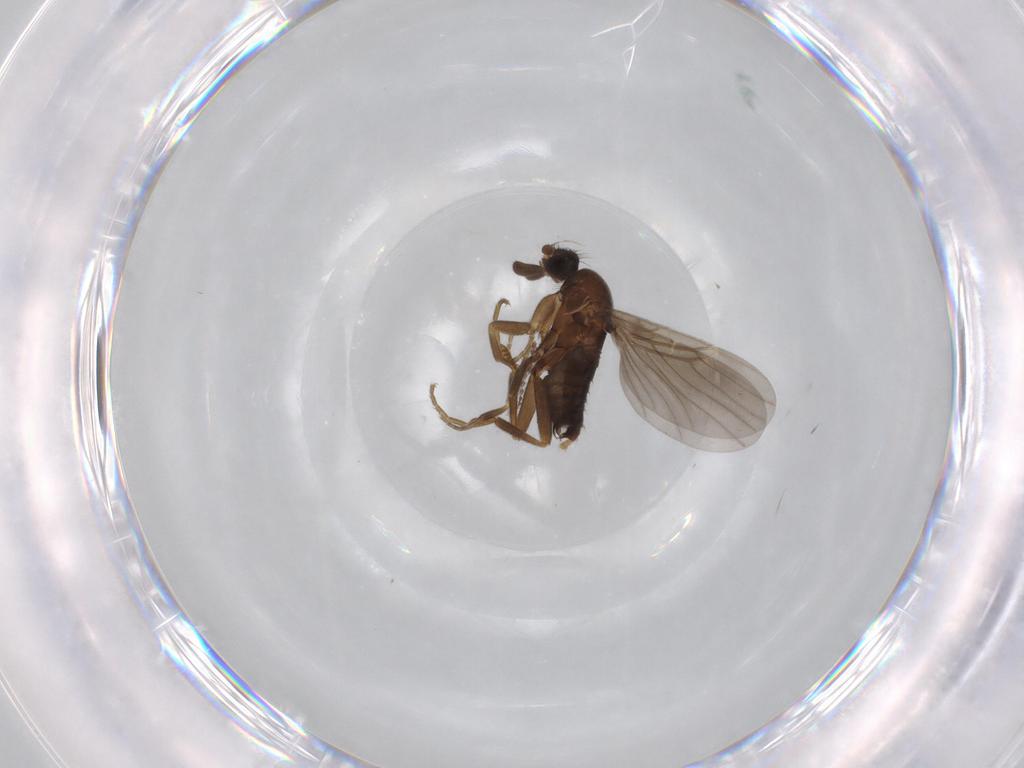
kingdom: Animalia
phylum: Arthropoda
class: Insecta
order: Diptera
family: Phoridae
